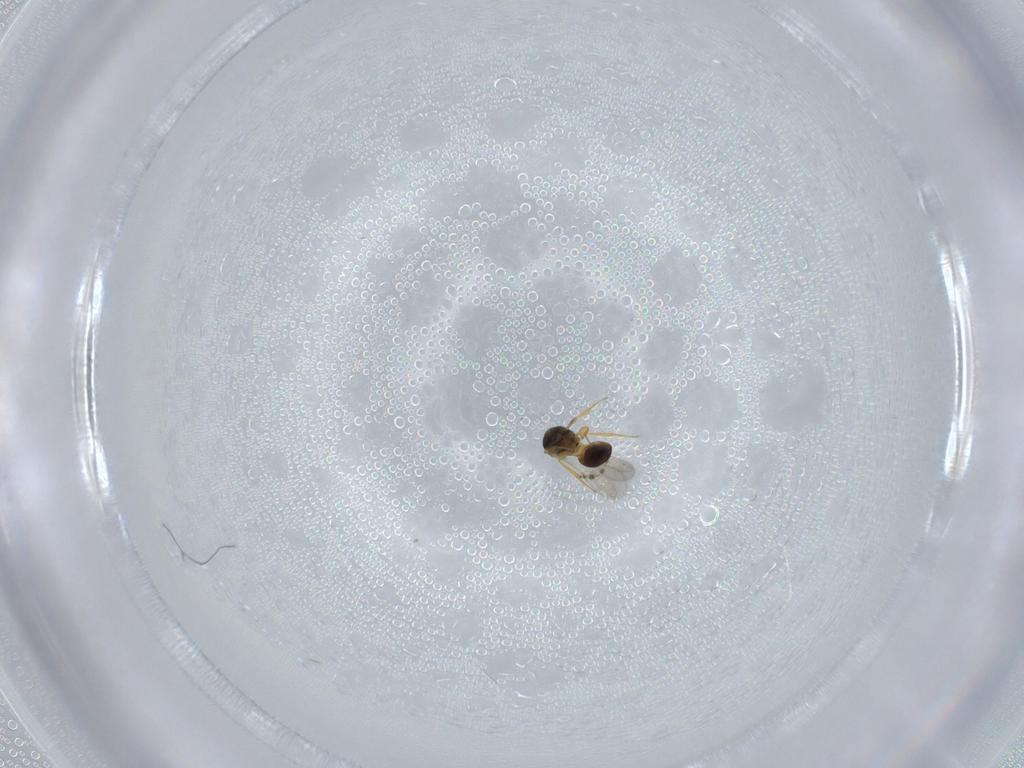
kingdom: Animalia
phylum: Arthropoda
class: Insecta
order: Hymenoptera
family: Scelionidae
